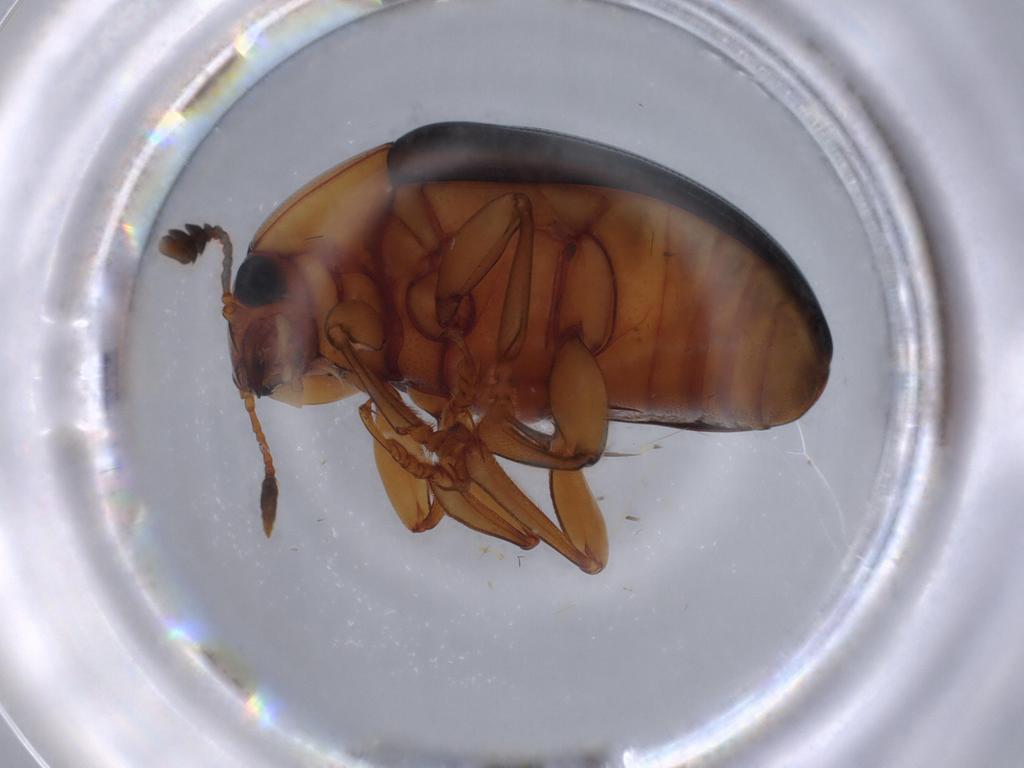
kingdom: Animalia
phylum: Arthropoda
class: Insecta
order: Coleoptera
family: Erotylidae
